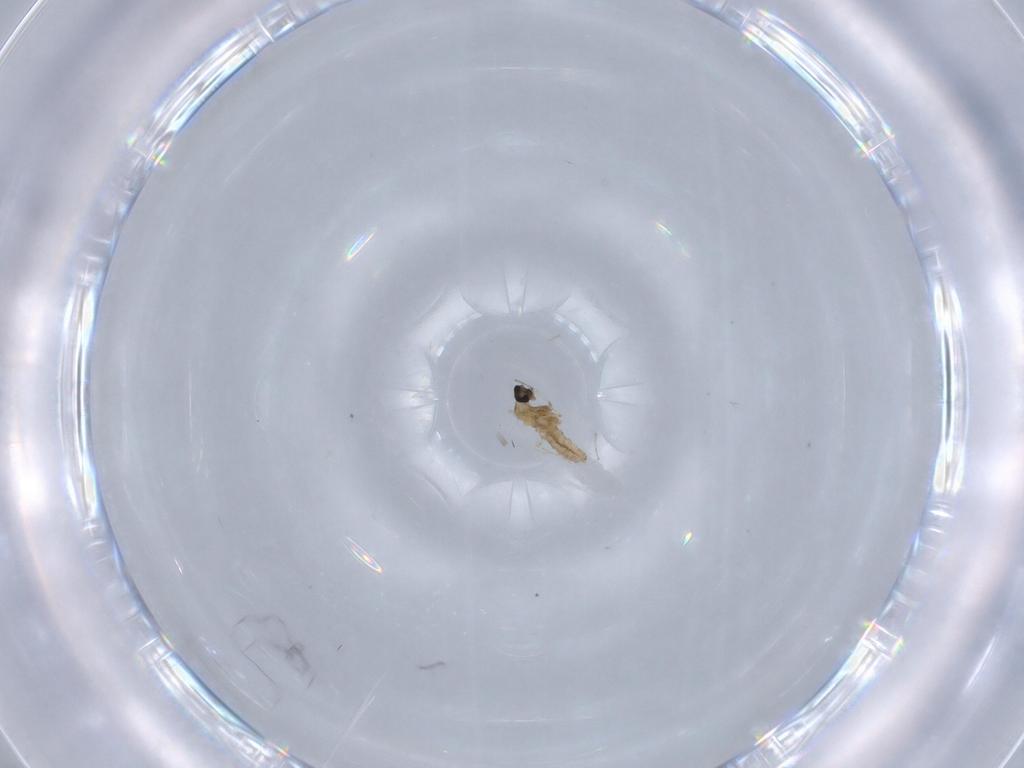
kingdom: Animalia
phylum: Arthropoda
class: Insecta
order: Diptera
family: Cecidomyiidae
